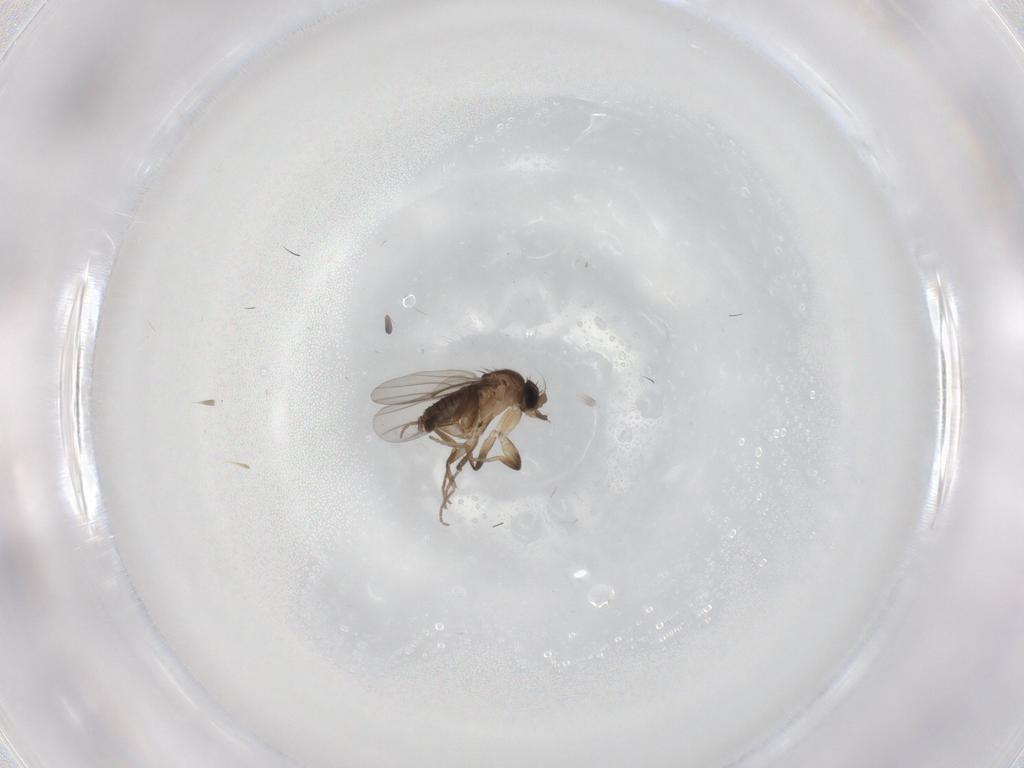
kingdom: Animalia
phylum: Arthropoda
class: Insecta
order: Diptera
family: Phoridae
